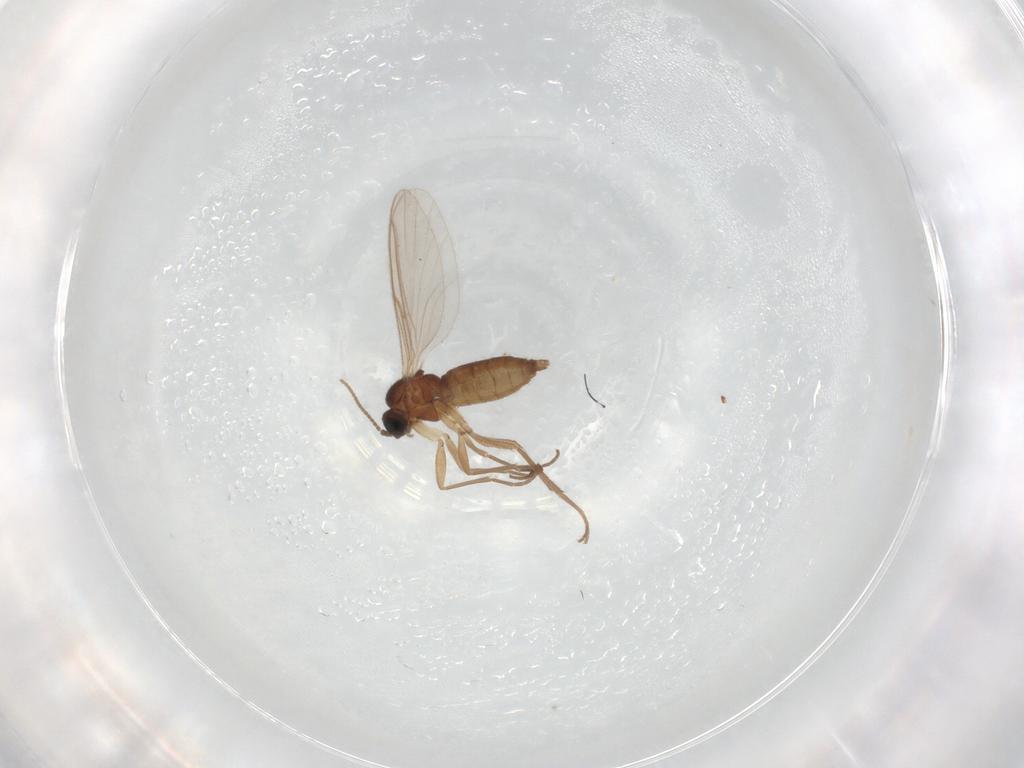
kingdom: Animalia
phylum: Arthropoda
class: Insecta
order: Diptera
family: Sciaridae
